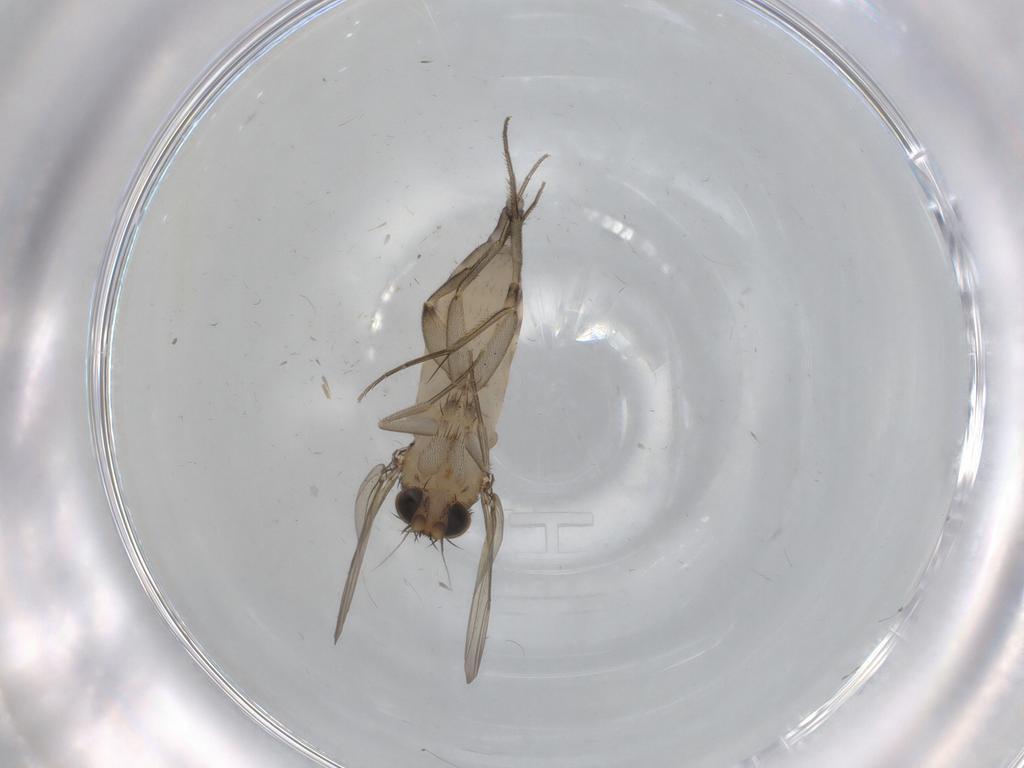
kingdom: Animalia
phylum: Arthropoda
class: Insecta
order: Diptera
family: Phoridae
